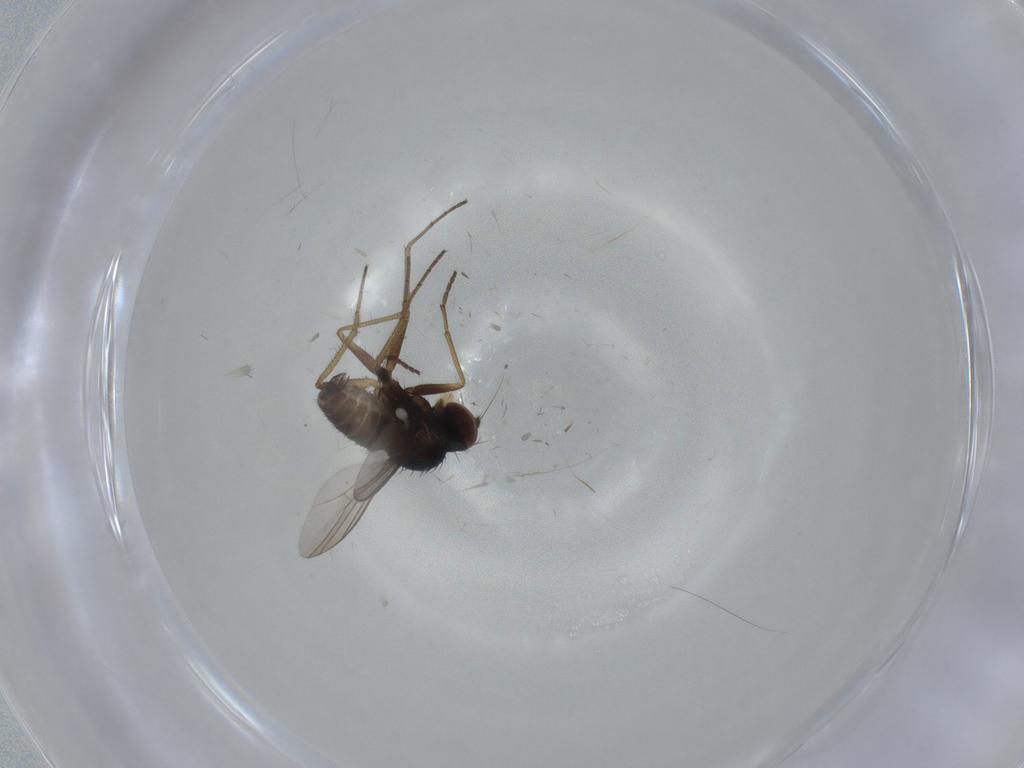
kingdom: Animalia
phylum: Arthropoda
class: Insecta
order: Diptera
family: Dolichopodidae
